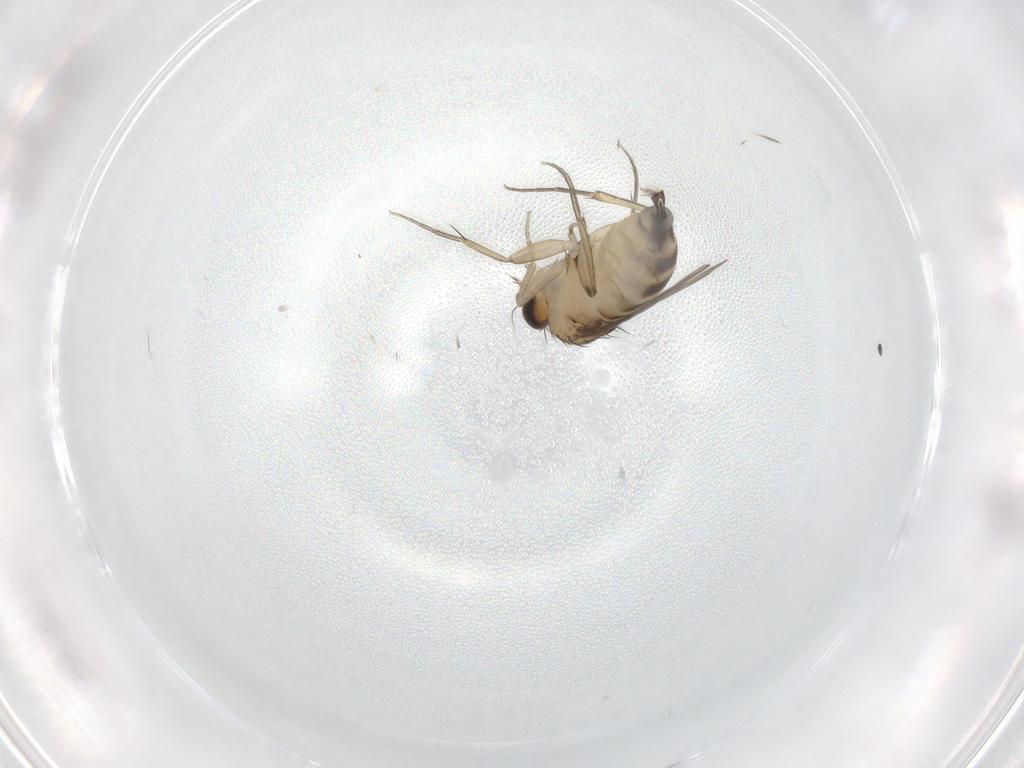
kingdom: Animalia
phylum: Arthropoda
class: Insecta
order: Diptera
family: Phoridae
